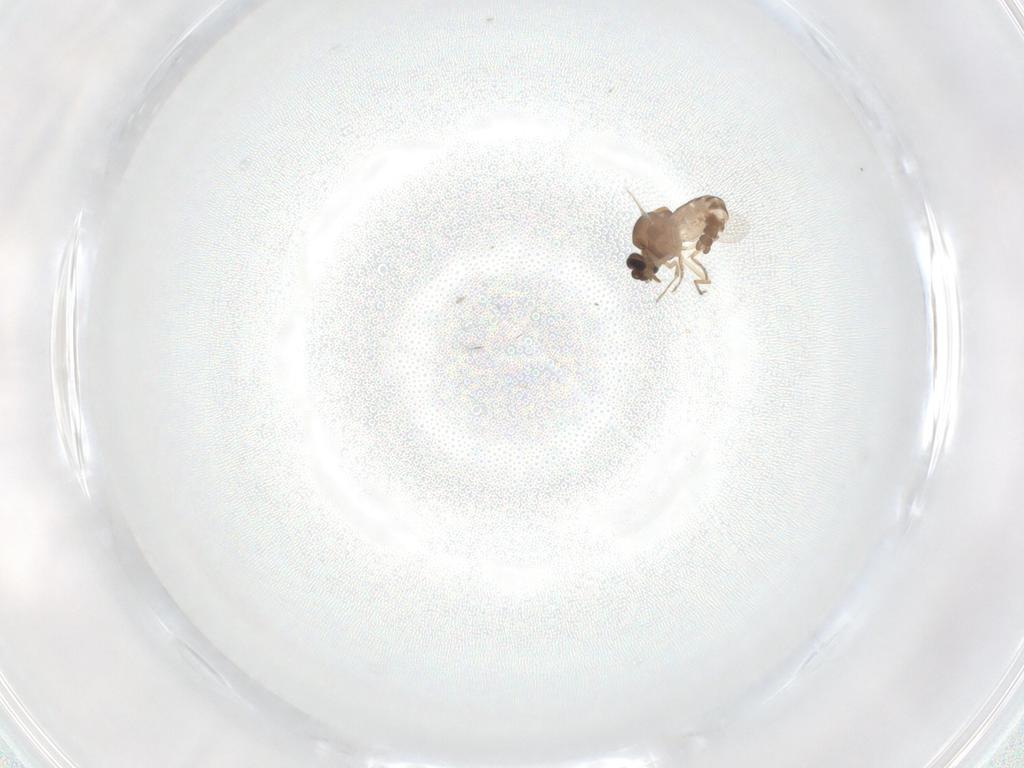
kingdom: Animalia
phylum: Arthropoda
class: Insecta
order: Diptera
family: Ceratopogonidae
